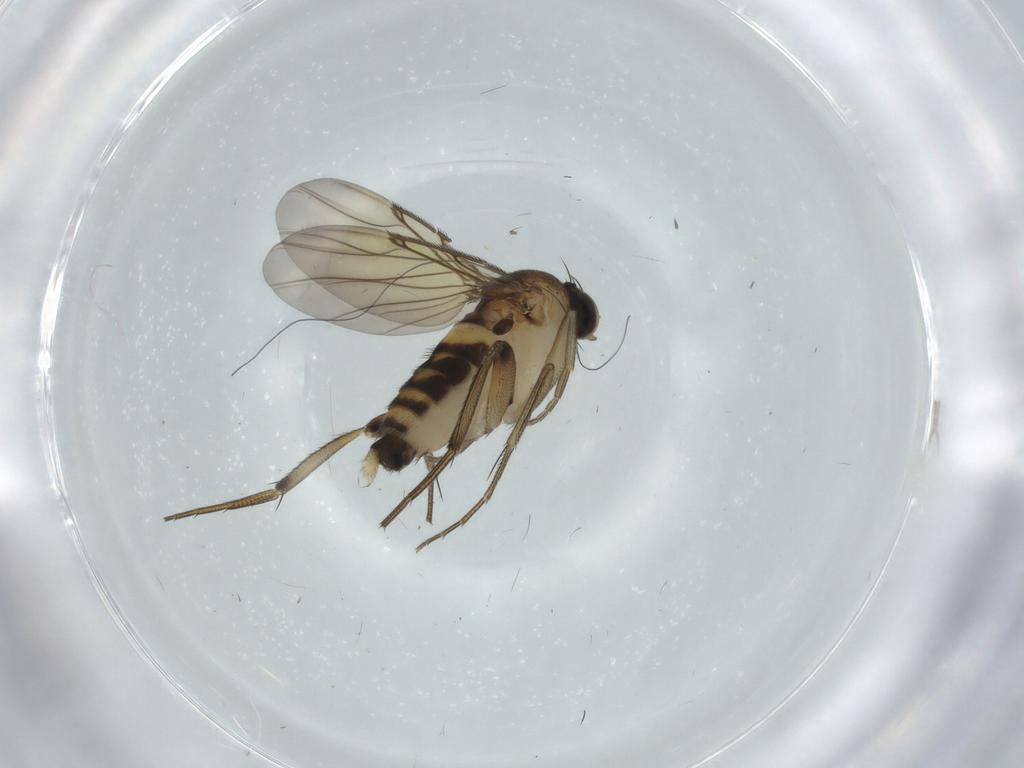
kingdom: Animalia
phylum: Arthropoda
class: Insecta
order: Diptera
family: Phoridae
